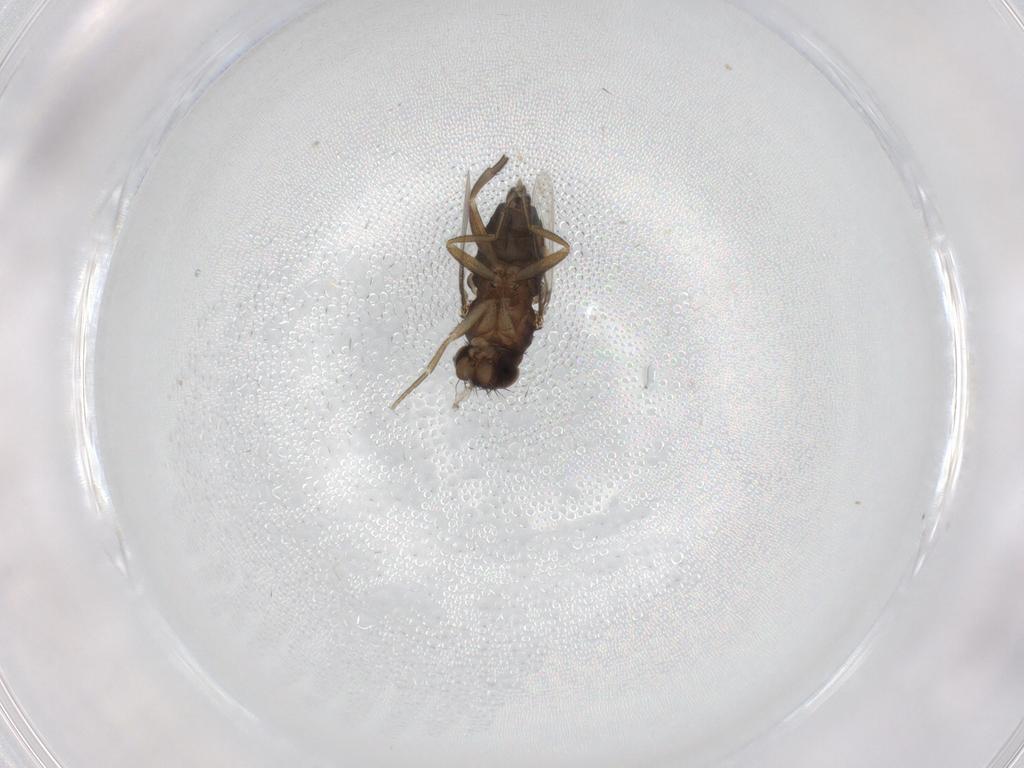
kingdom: Animalia
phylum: Arthropoda
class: Insecta
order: Diptera
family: Phoridae
